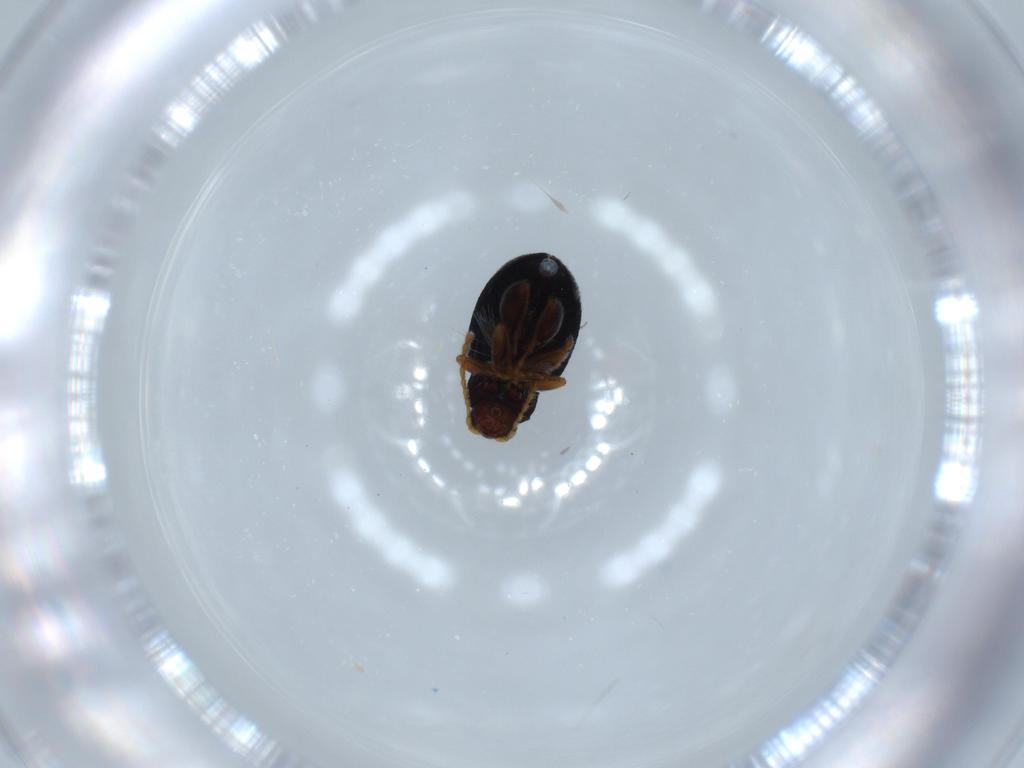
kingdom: Animalia
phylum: Arthropoda
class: Insecta
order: Coleoptera
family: Chrysomelidae
